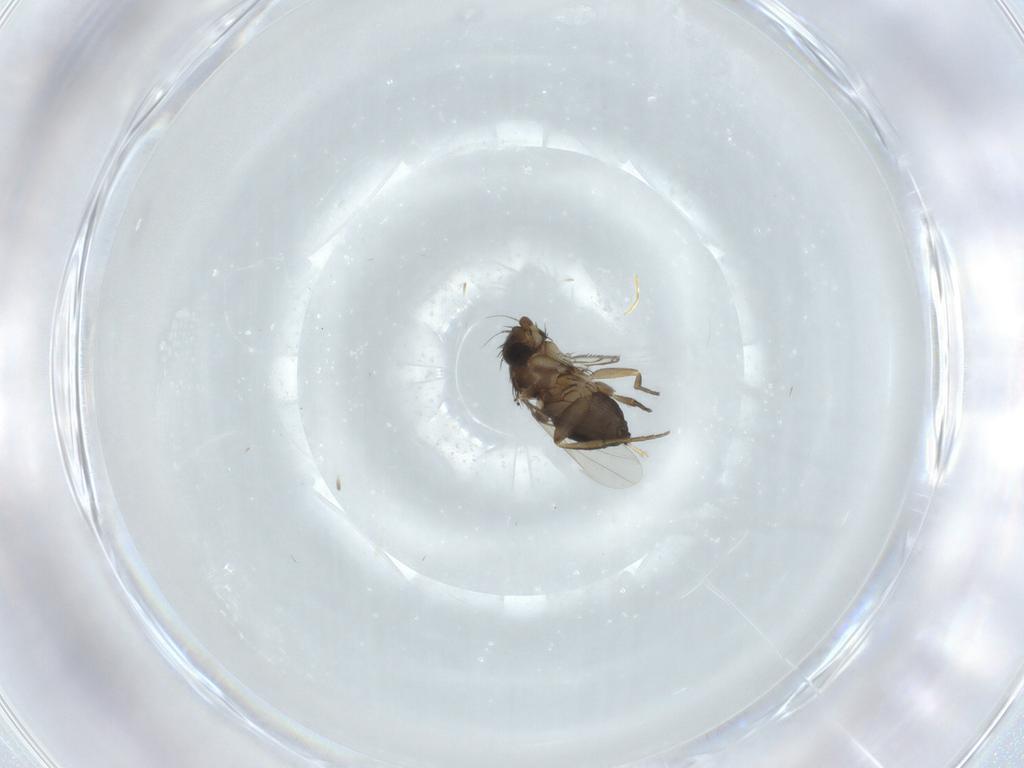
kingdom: Animalia
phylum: Arthropoda
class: Insecta
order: Diptera
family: Phoridae
